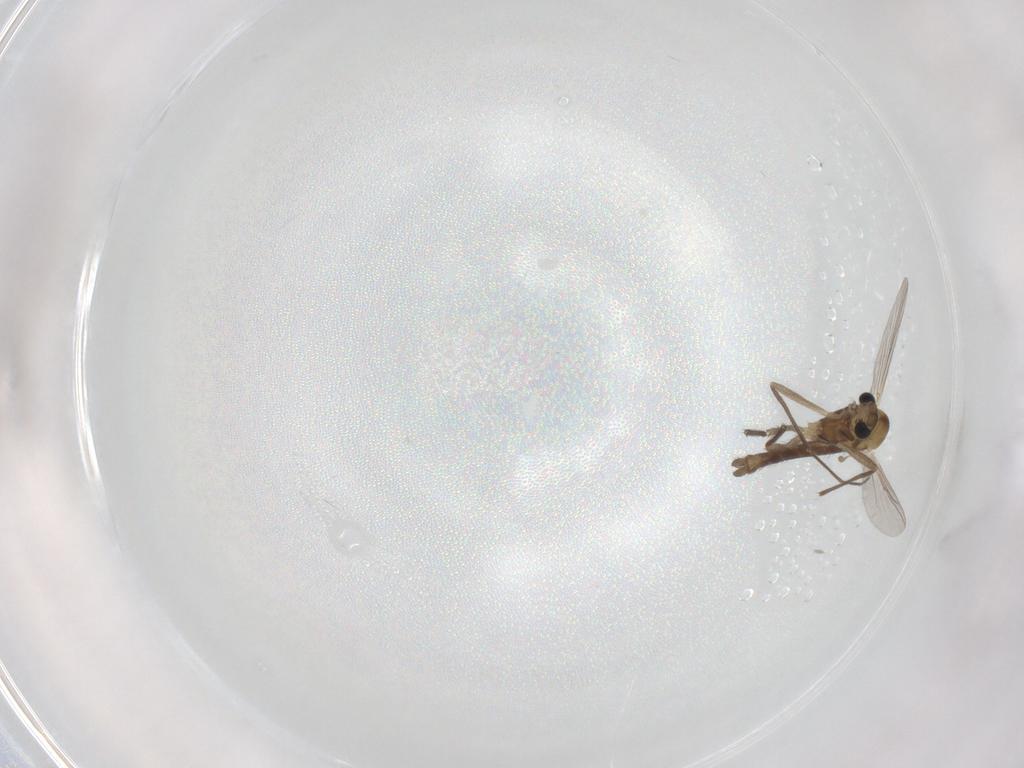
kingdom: Animalia
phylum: Arthropoda
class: Insecta
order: Diptera
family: Chironomidae
